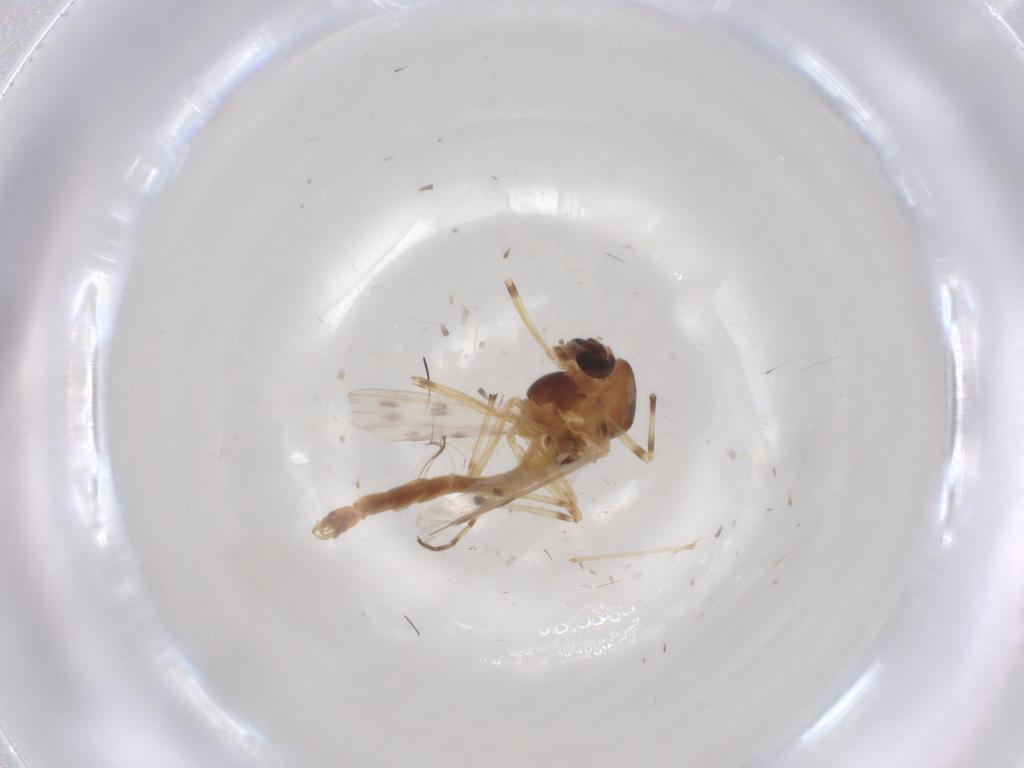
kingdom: Animalia
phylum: Arthropoda
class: Insecta
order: Diptera
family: Chironomidae
